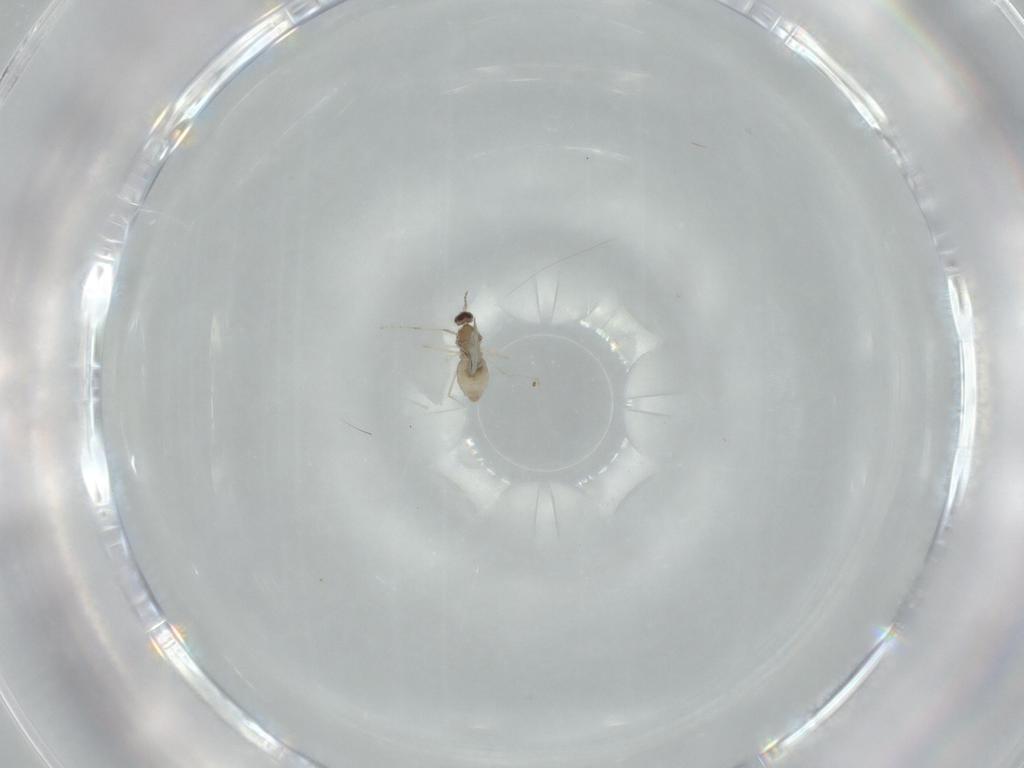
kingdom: Animalia
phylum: Arthropoda
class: Insecta
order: Diptera
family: Cecidomyiidae
